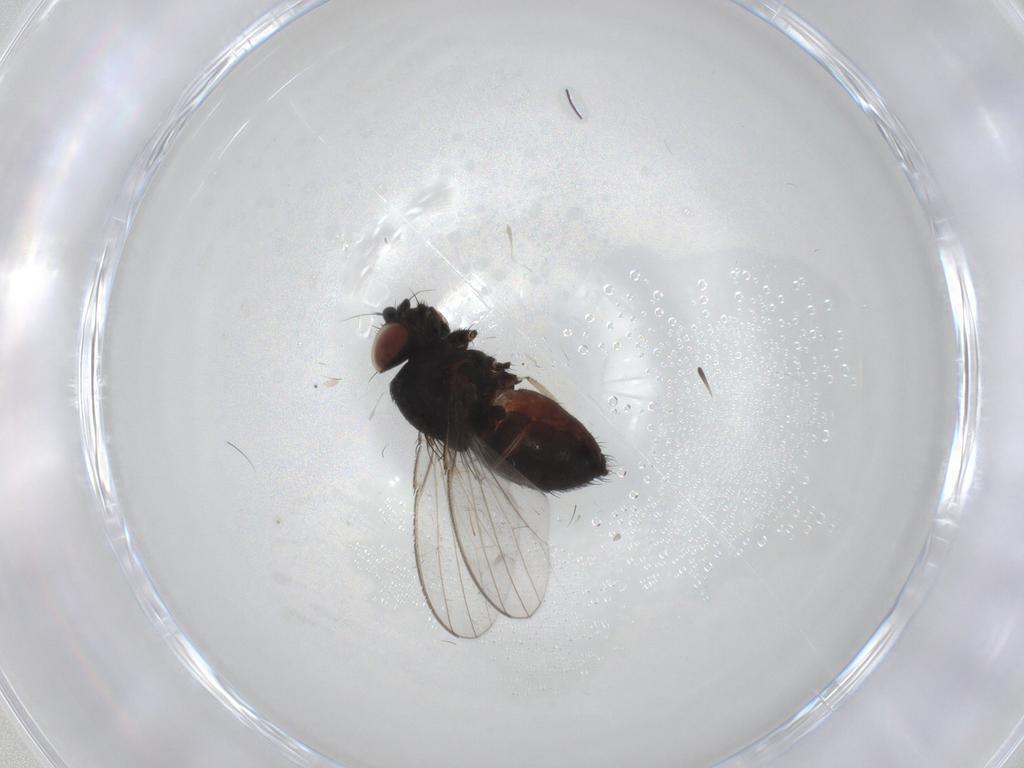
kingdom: Animalia
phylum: Arthropoda
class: Insecta
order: Diptera
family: Milichiidae
